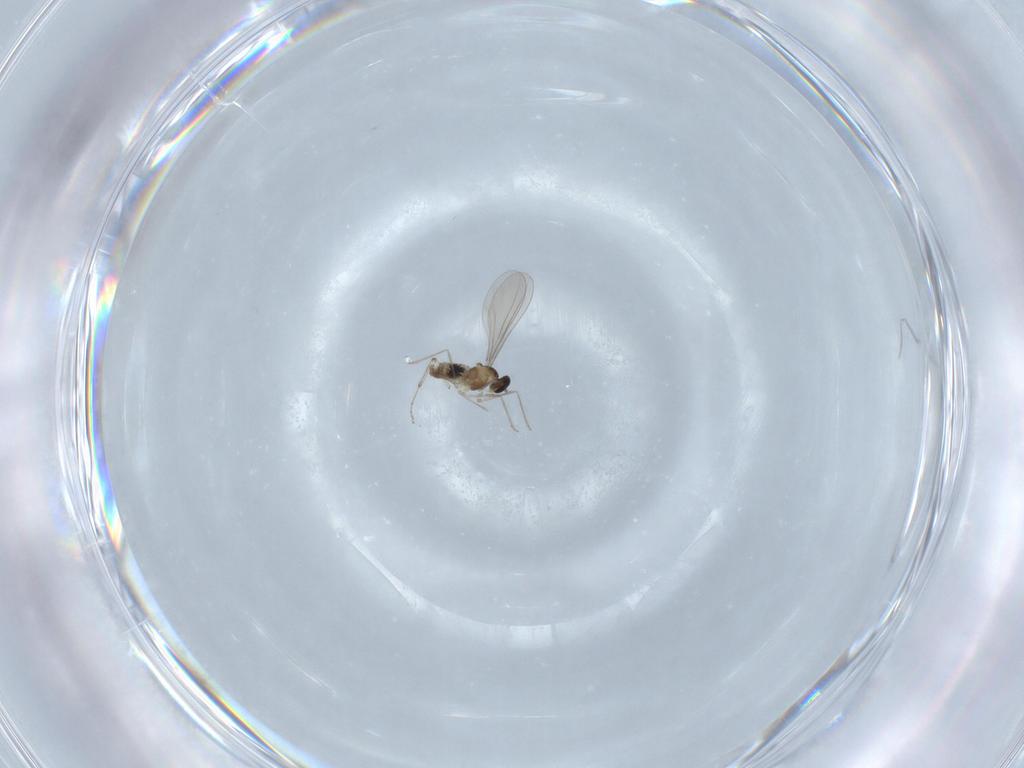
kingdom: Animalia
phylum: Arthropoda
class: Insecta
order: Diptera
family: Ceratopogonidae
